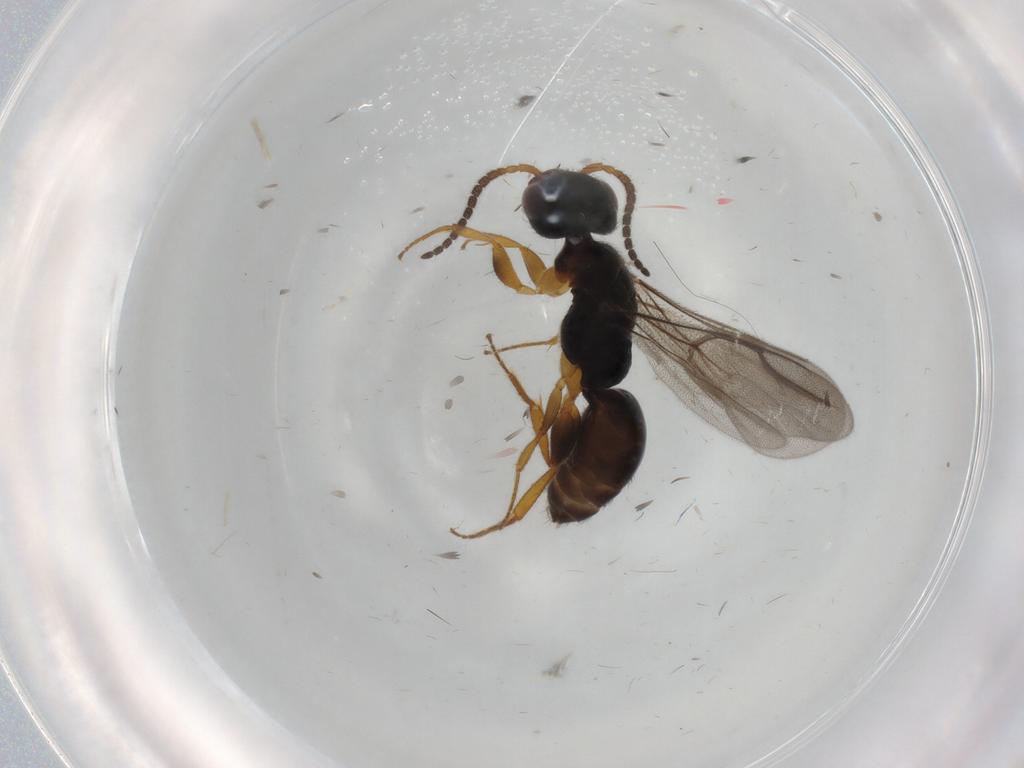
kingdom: Animalia
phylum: Arthropoda
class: Insecta
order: Hymenoptera
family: Bethylidae
